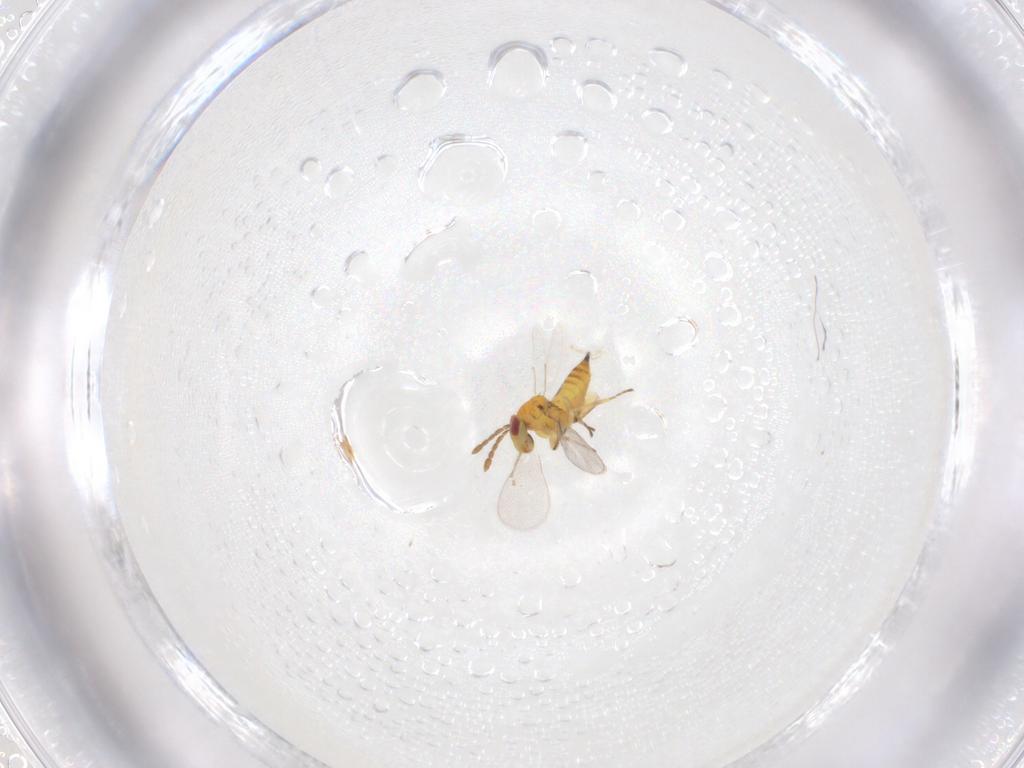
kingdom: Animalia
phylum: Arthropoda
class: Insecta
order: Hymenoptera
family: Eulophidae
